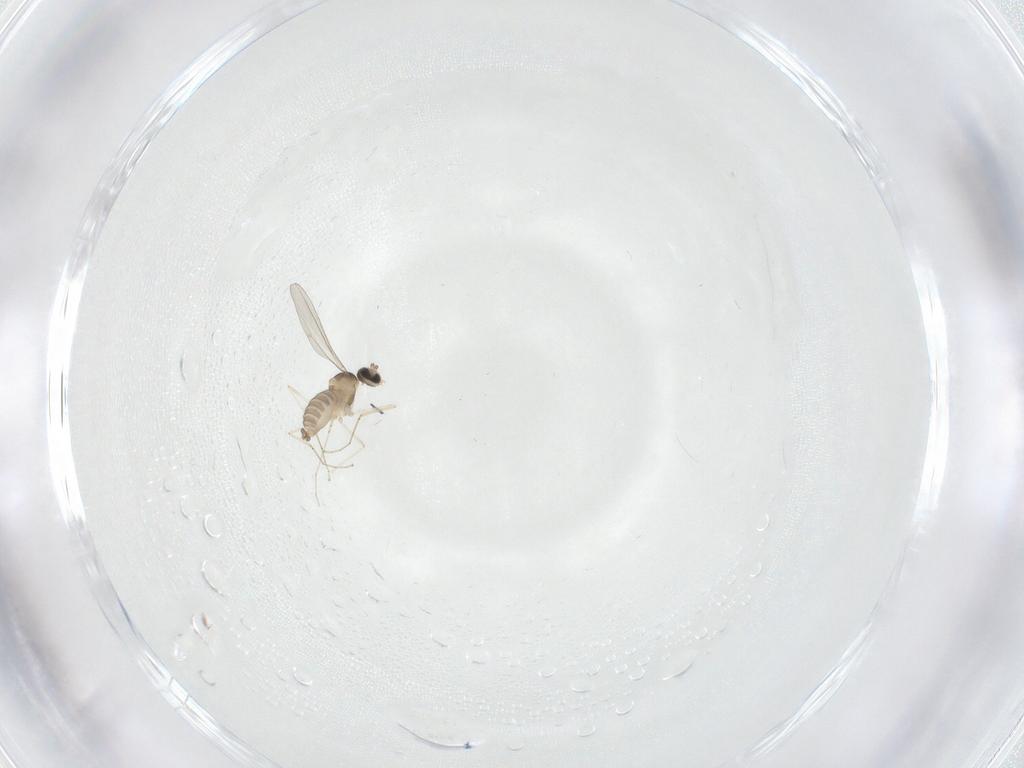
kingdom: Animalia
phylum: Arthropoda
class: Insecta
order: Diptera
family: Cecidomyiidae
